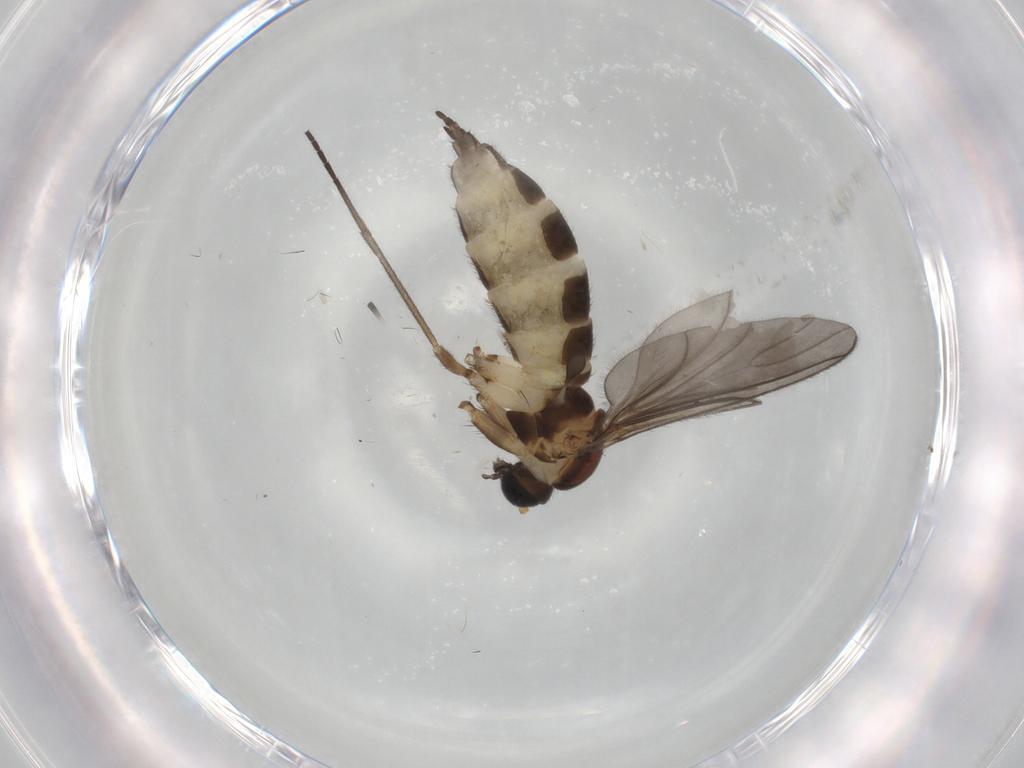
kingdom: Animalia
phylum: Arthropoda
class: Insecta
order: Diptera
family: Sciaridae
